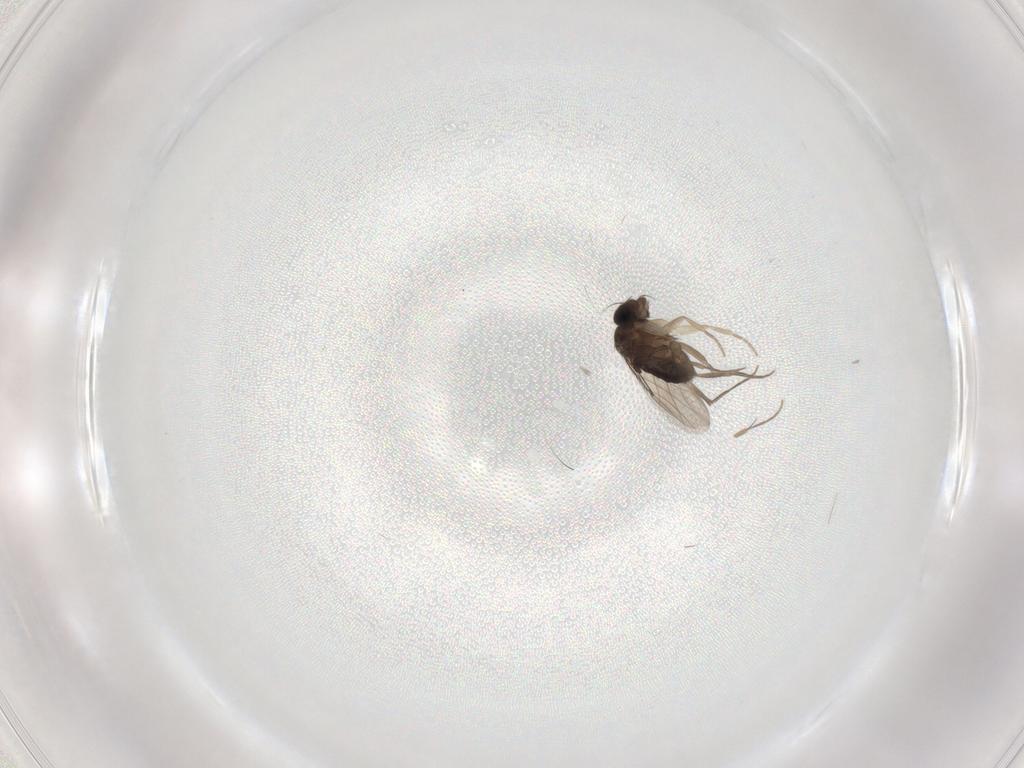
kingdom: Animalia
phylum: Arthropoda
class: Insecta
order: Diptera
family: Phoridae
